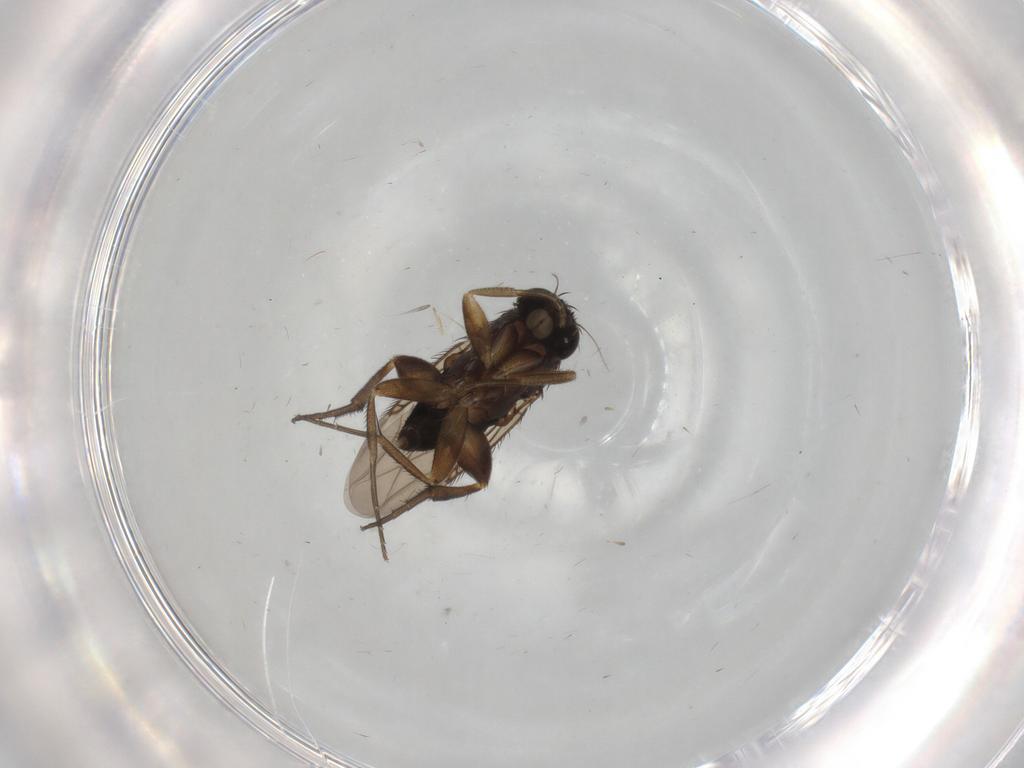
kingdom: Animalia
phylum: Arthropoda
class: Insecta
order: Diptera
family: Phoridae
